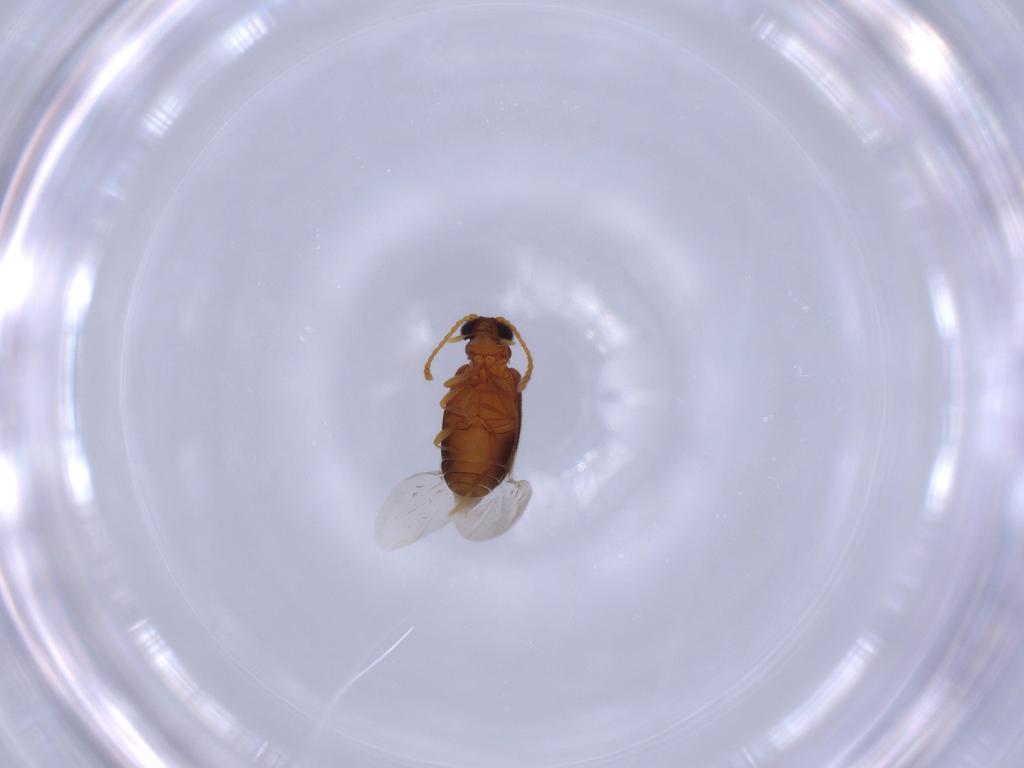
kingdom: Animalia
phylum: Arthropoda
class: Insecta
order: Coleoptera
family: Aderidae
